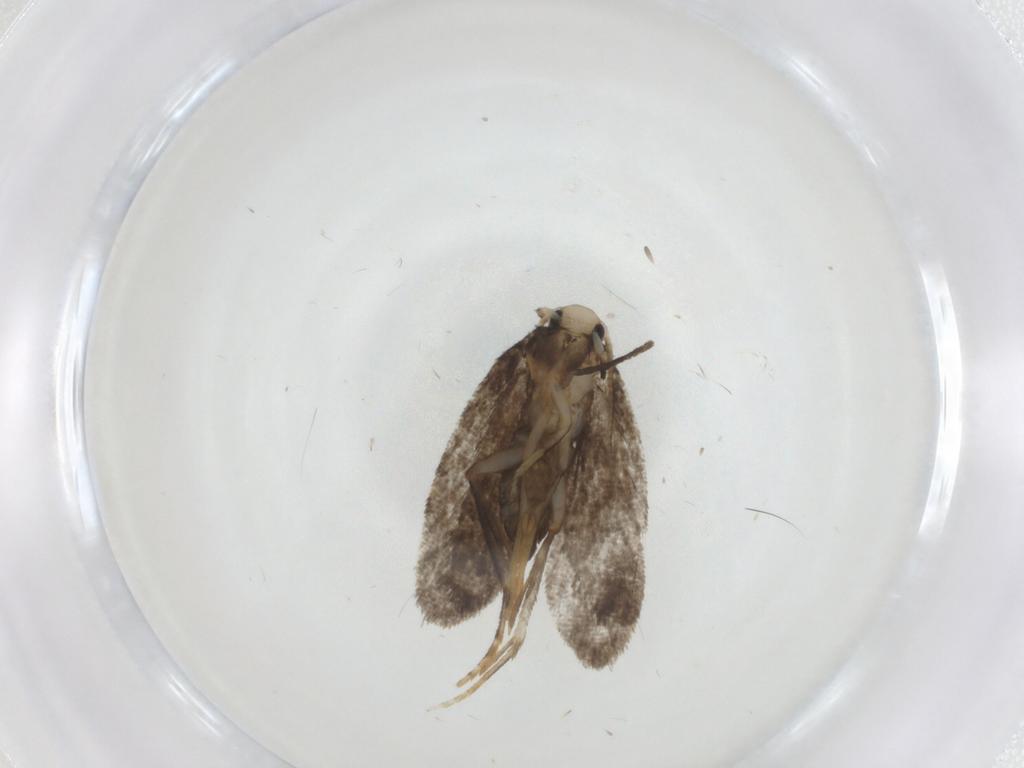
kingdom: Animalia
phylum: Arthropoda
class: Insecta
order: Lepidoptera
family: Psychidae
